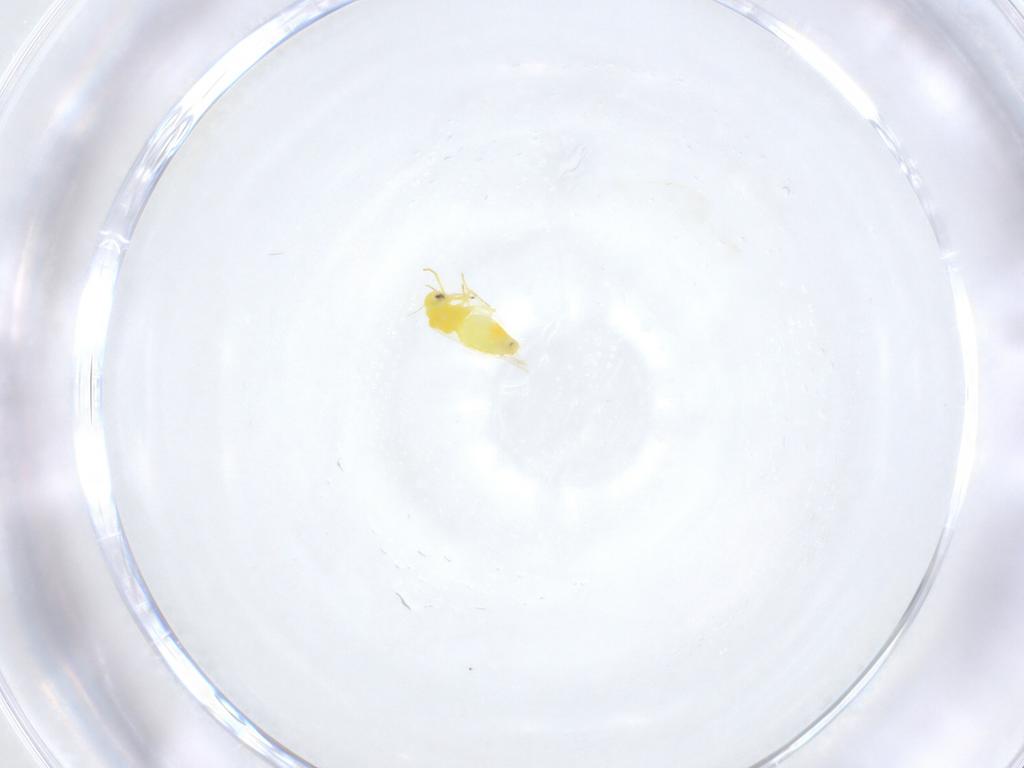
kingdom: Animalia
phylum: Arthropoda
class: Insecta
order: Hemiptera
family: Aleyrodidae
